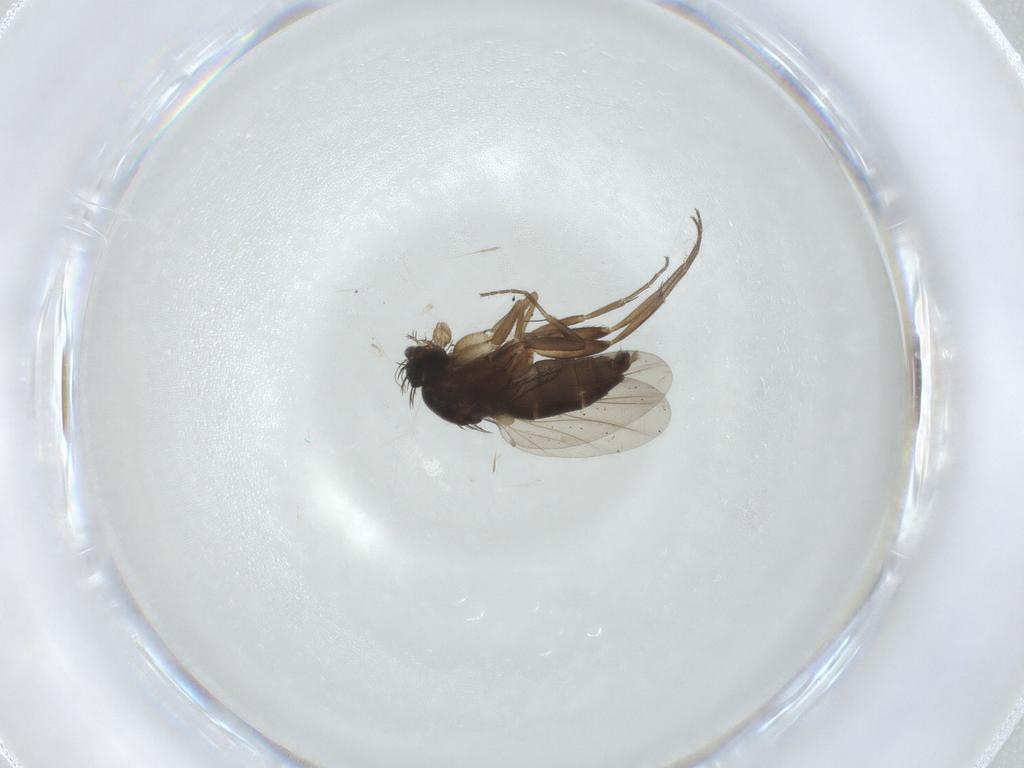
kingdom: Animalia
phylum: Arthropoda
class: Insecta
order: Diptera
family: Phoridae
